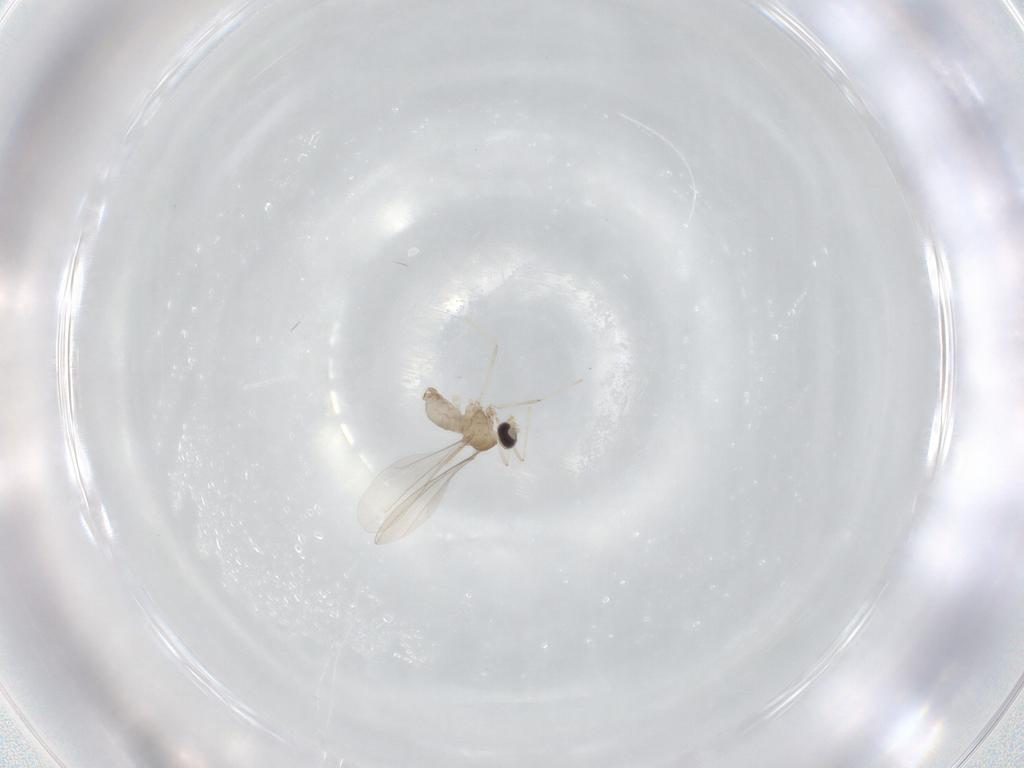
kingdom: Animalia
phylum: Arthropoda
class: Insecta
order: Diptera
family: Cecidomyiidae
